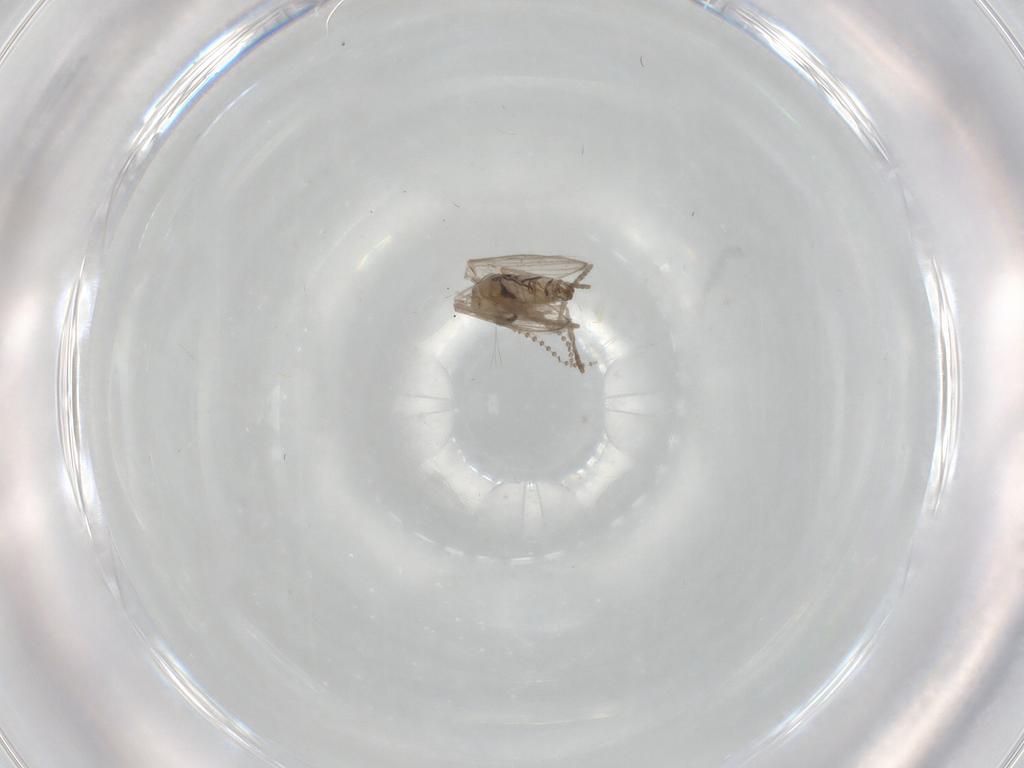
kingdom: Animalia
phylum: Arthropoda
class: Insecta
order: Diptera
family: Psychodidae
